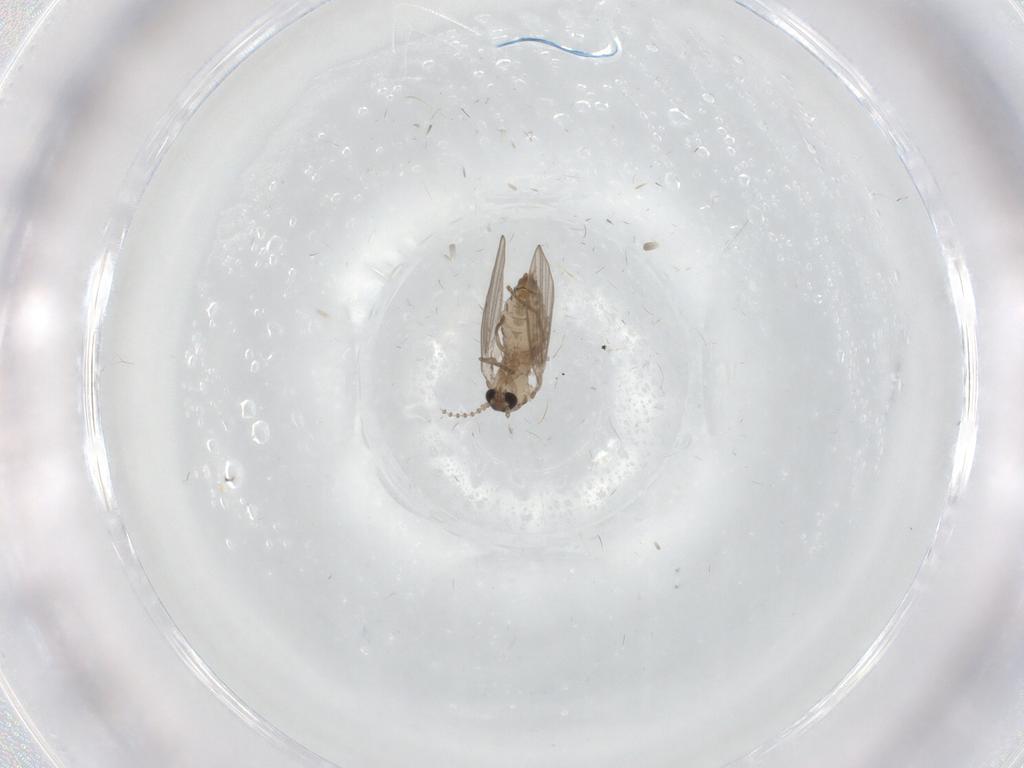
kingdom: Animalia
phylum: Arthropoda
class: Insecta
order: Diptera
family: Psychodidae
